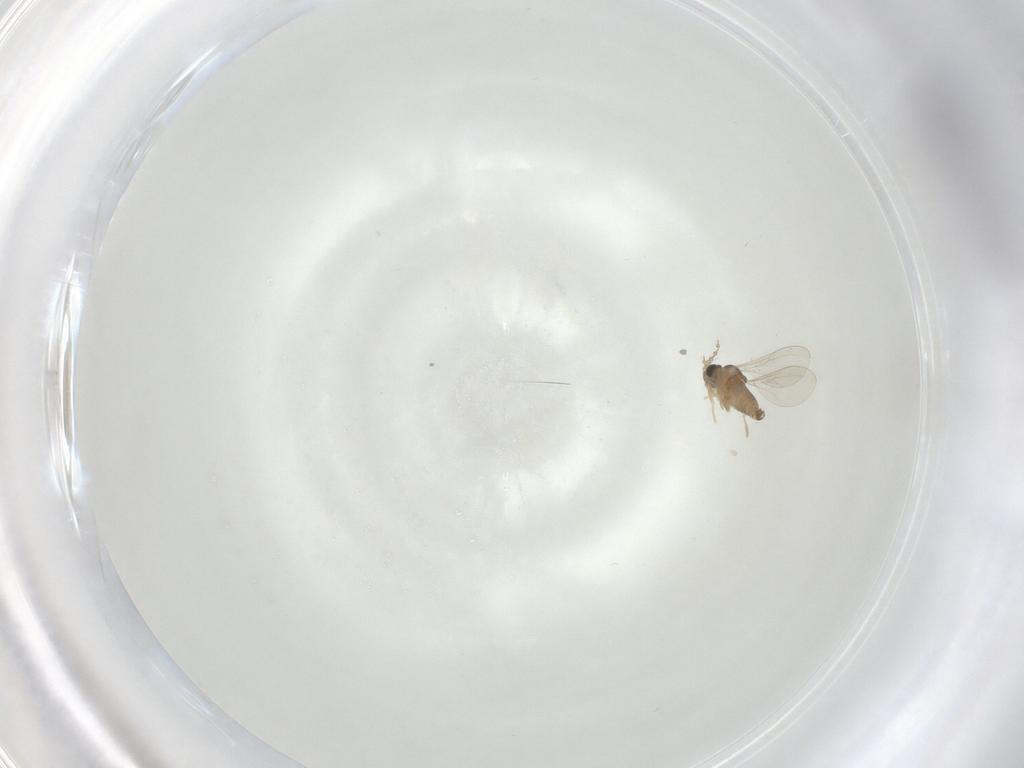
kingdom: Animalia
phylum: Arthropoda
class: Insecta
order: Diptera
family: Cecidomyiidae
